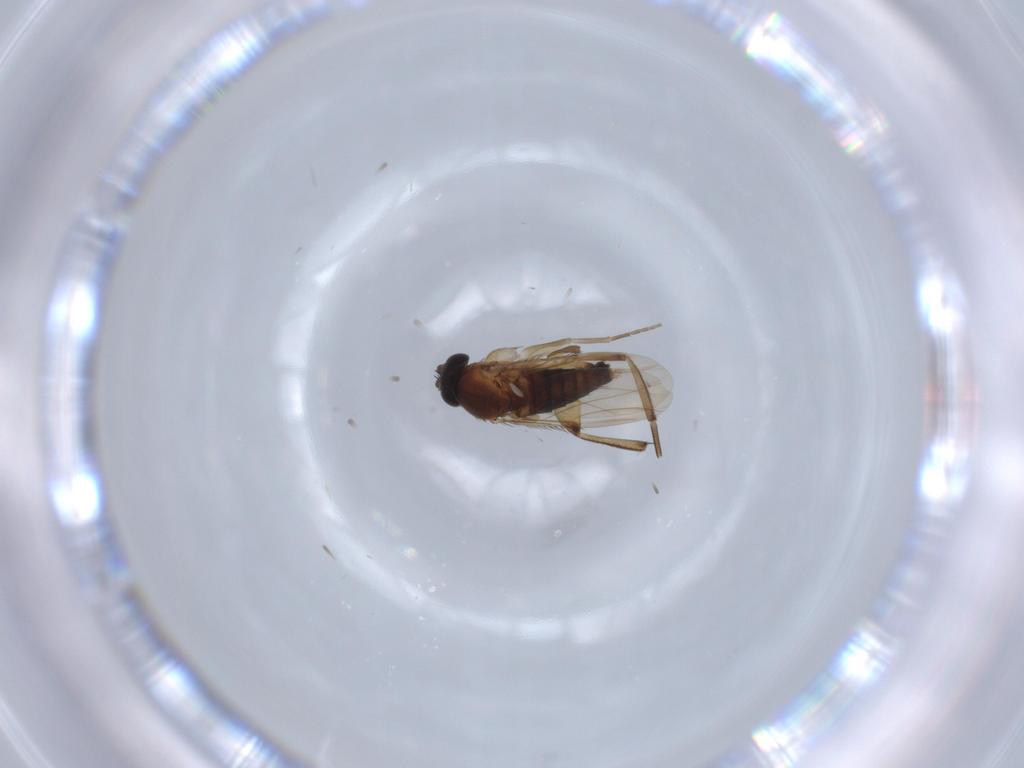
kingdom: Animalia
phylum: Arthropoda
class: Insecta
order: Diptera
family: Phoridae
